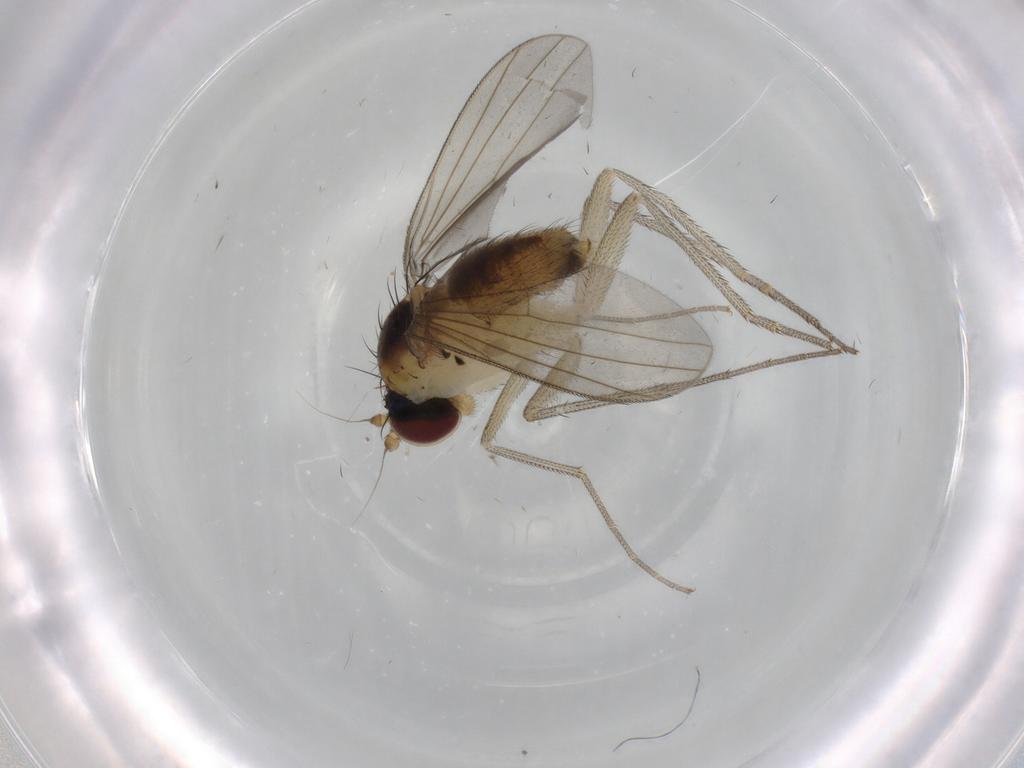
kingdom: Animalia
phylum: Arthropoda
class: Insecta
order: Diptera
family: Dolichopodidae
